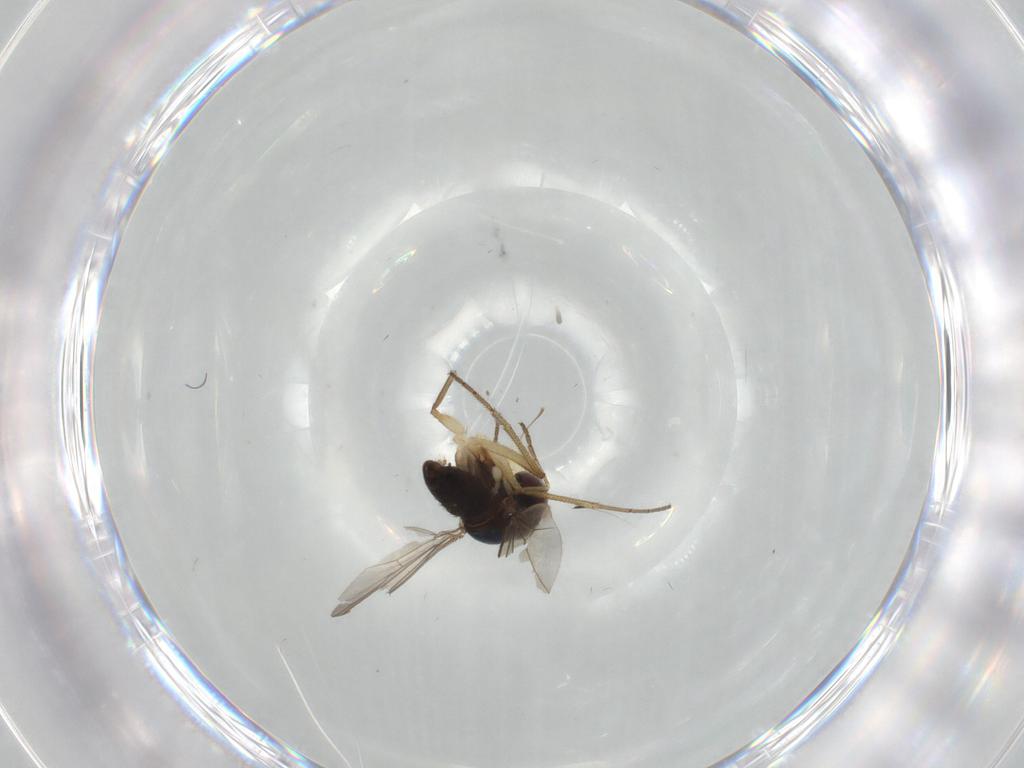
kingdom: Animalia
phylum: Arthropoda
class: Insecta
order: Diptera
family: Dolichopodidae
